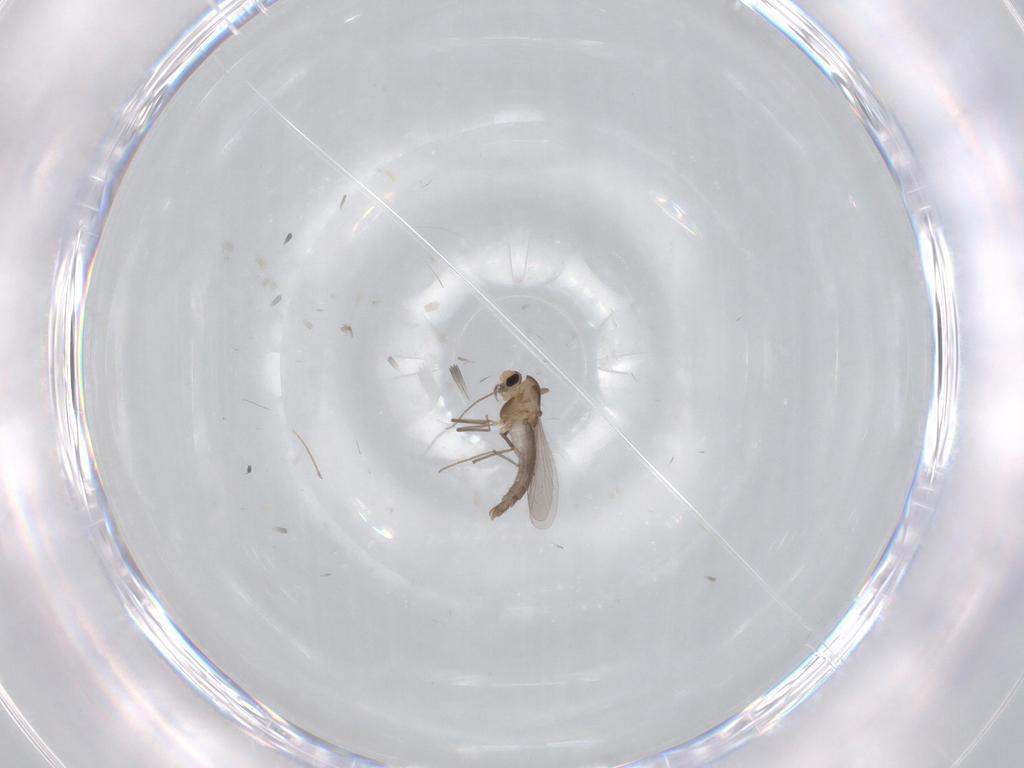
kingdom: Animalia
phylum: Arthropoda
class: Insecta
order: Diptera
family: Chironomidae
